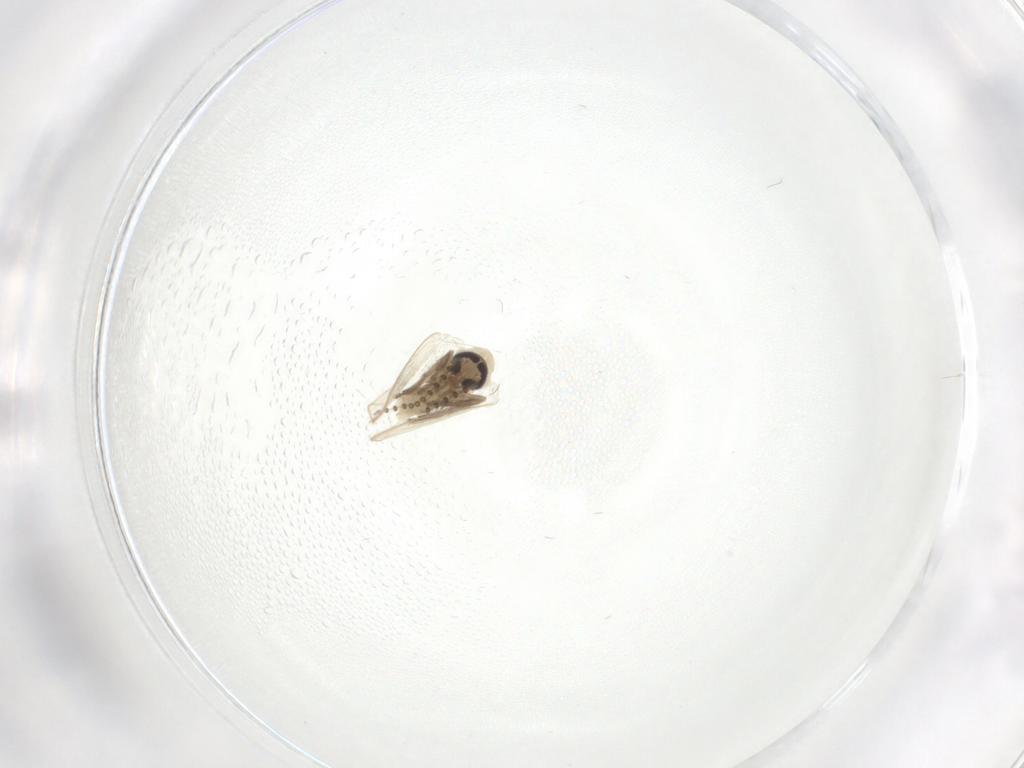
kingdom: Animalia
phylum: Arthropoda
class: Insecta
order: Diptera
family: Psychodidae
